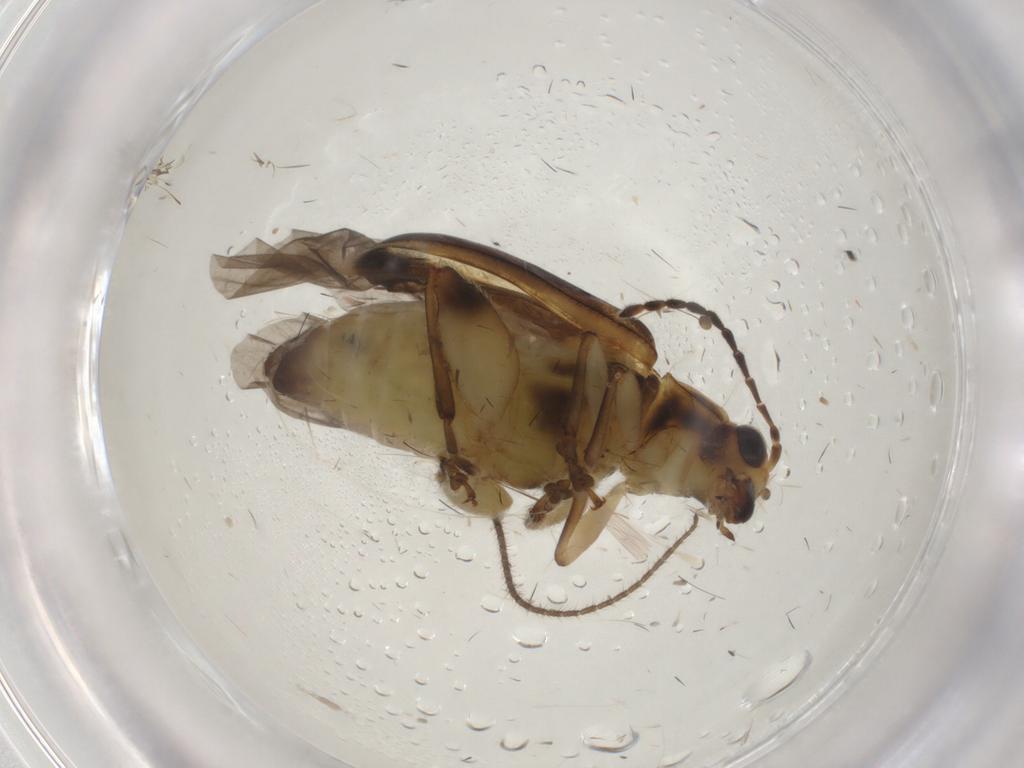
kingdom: Animalia
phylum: Arthropoda
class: Insecta
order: Coleoptera
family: Chrysomelidae
